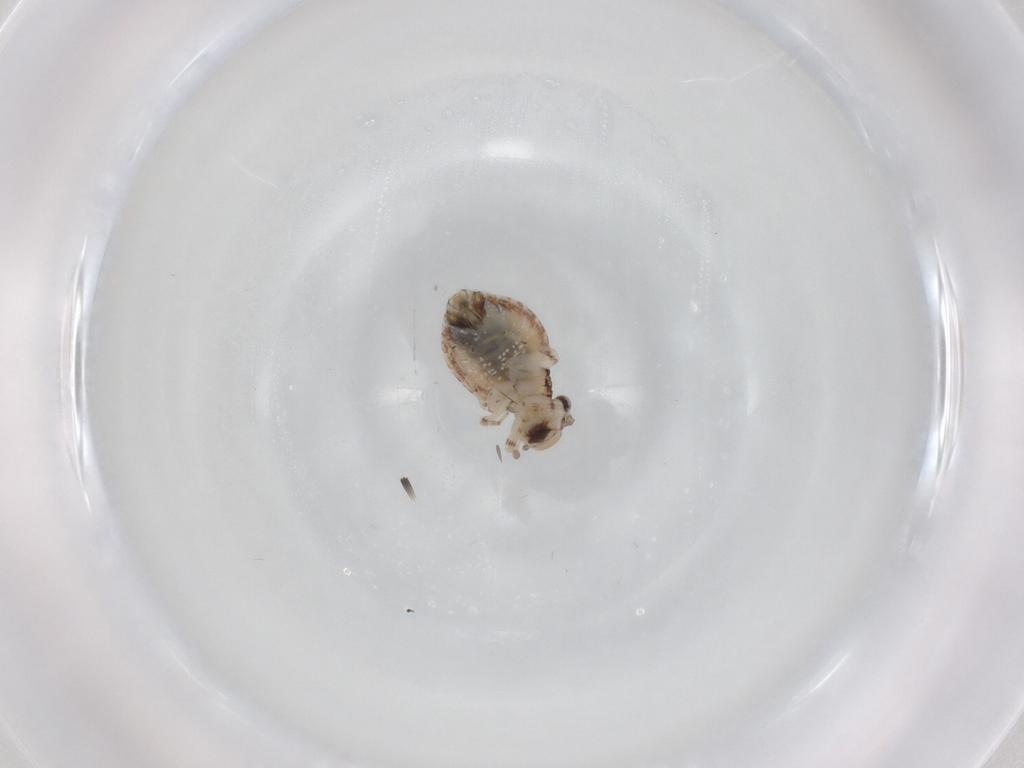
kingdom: Animalia
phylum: Arthropoda
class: Insecta
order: Psocodea
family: Trogiidae
